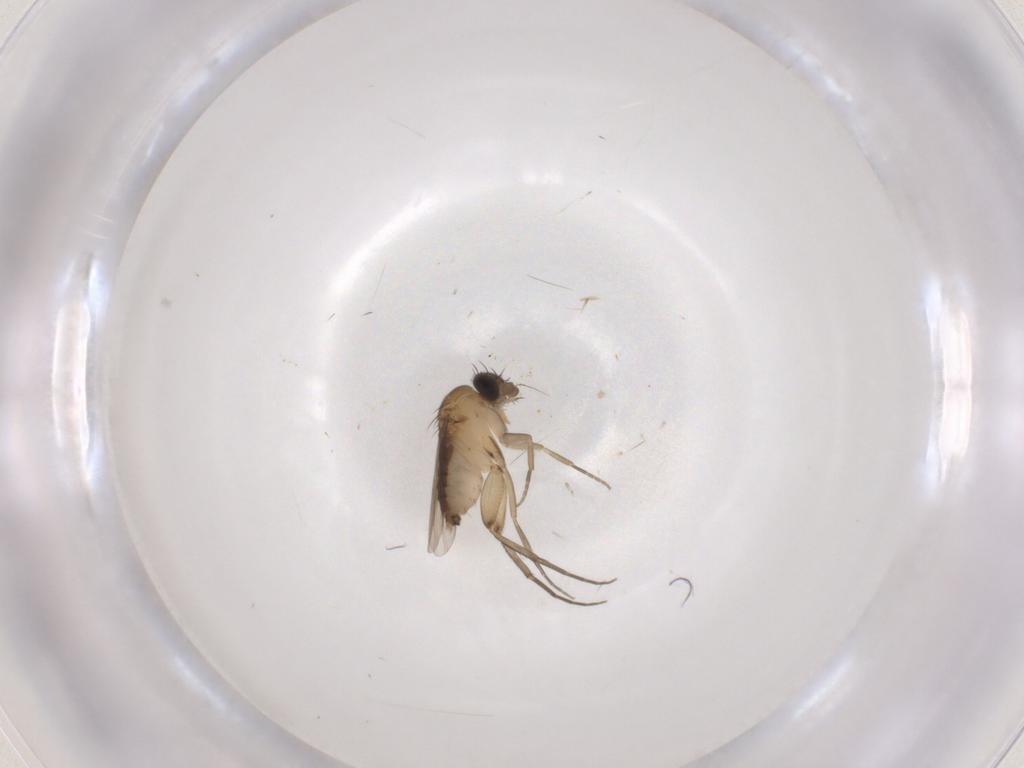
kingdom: Animalia
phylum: Arthropoda
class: Insecta
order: Diptera
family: Phoridae
